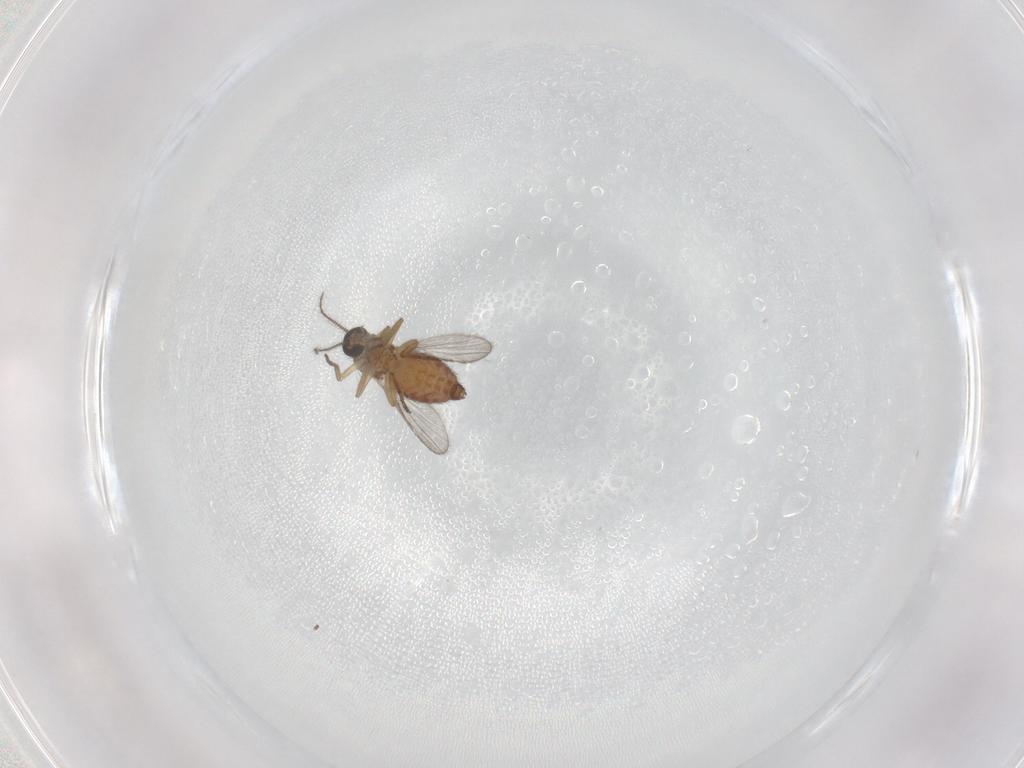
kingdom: Animalia
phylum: Arthropoda
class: Insecta
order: Diptera
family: Chironomidae
